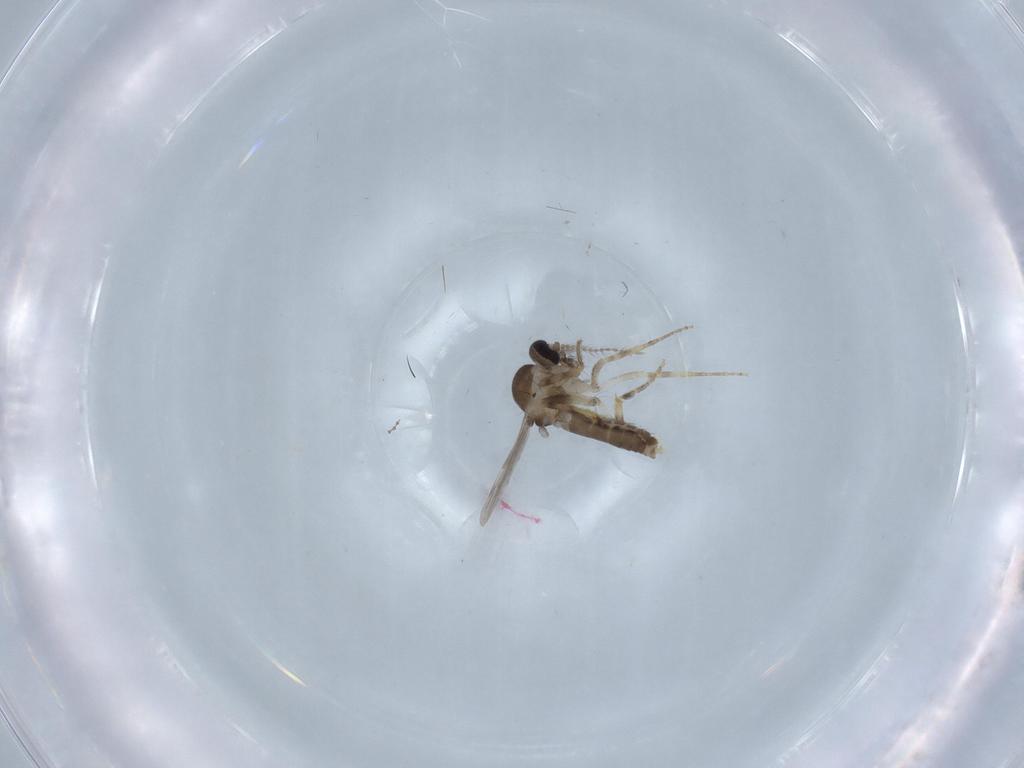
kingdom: Animalia
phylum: Arthropoda
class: Insecta
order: Diptera
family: Ceratopogonidae
